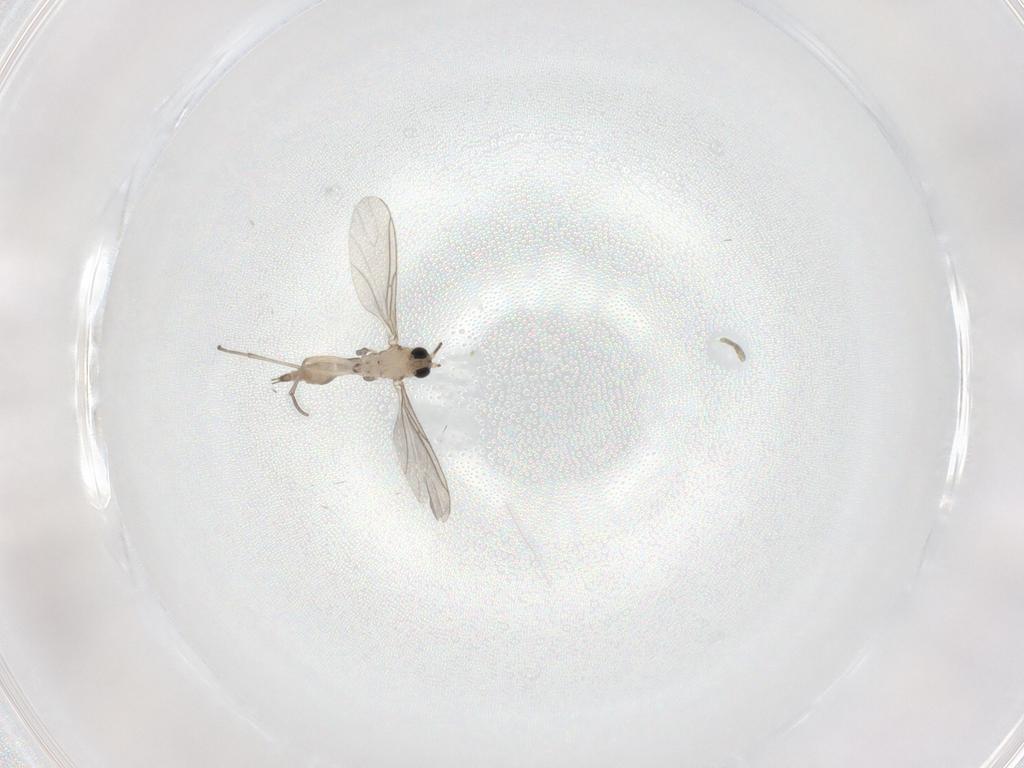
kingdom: Animalia
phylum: Arthropoda
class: Insecta
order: Diptera
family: Sciaridae
